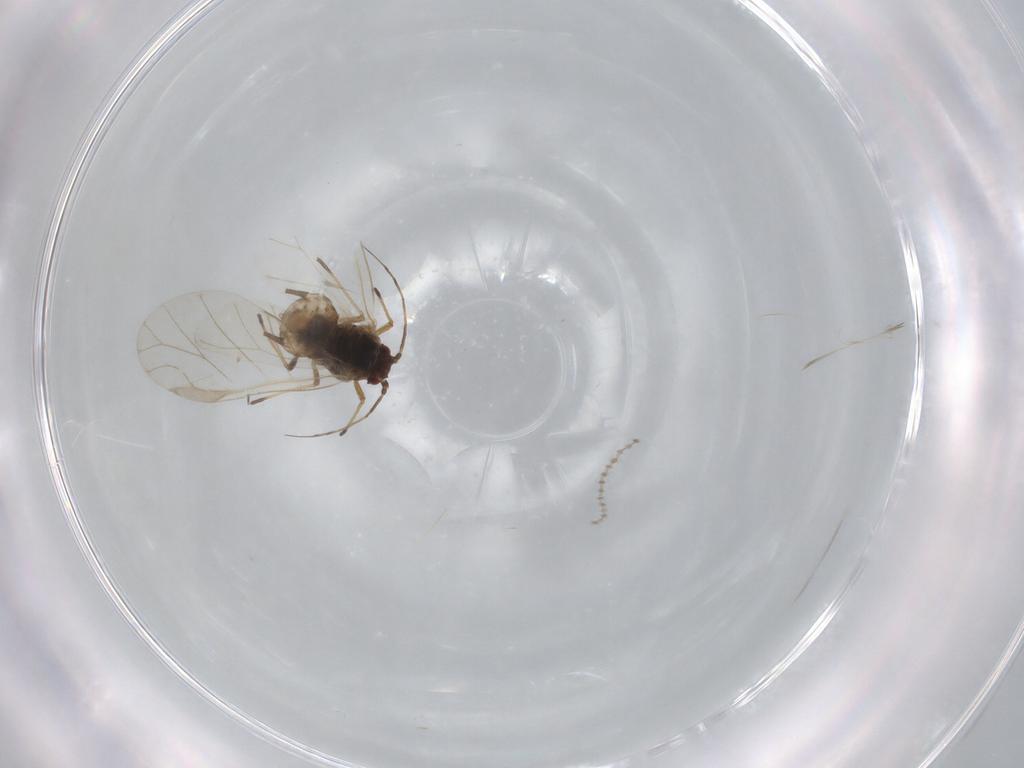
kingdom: Animalia
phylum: Arthropoda
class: Insecta
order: Hemiptera
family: Aphididae
